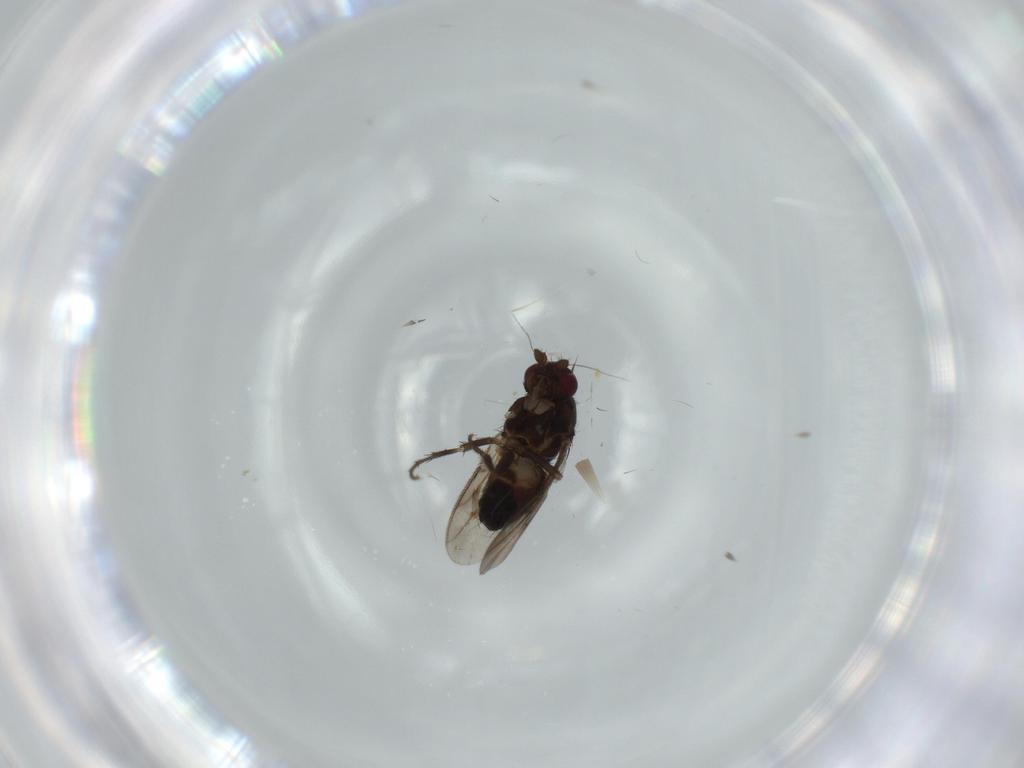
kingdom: Animalia
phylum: Arthropoda
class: Insecta
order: Diptera
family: Sphaeroceridae
